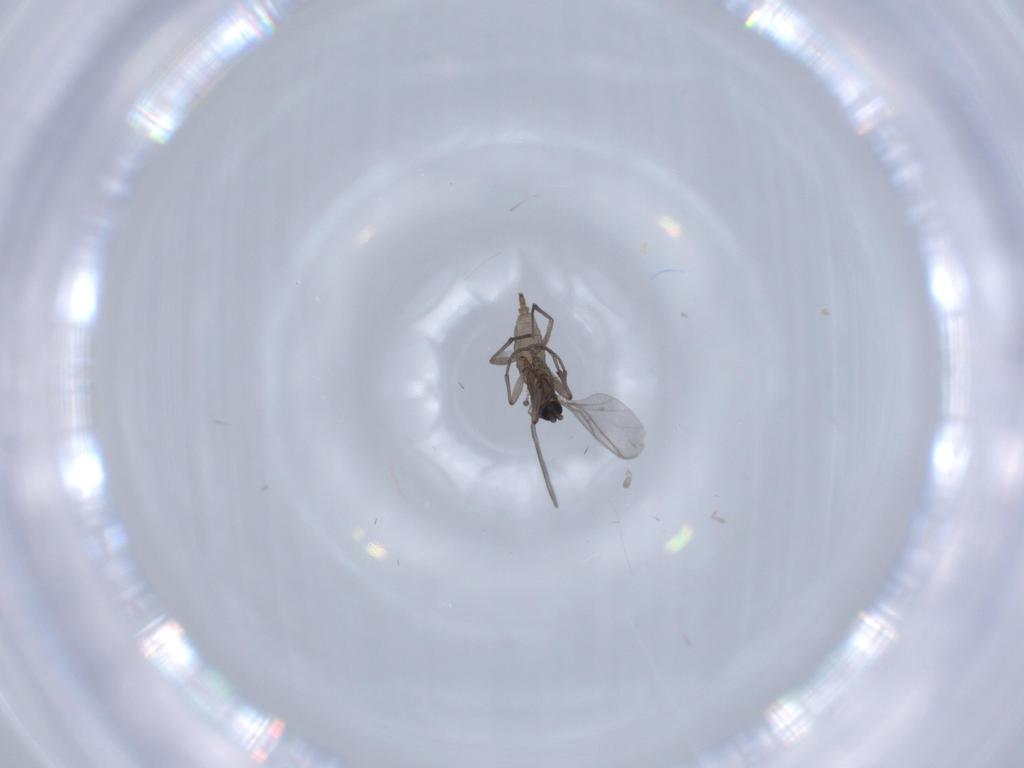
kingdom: Animalia
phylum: Arthropoda
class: Insecta
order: Diptera
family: Sciaridae
